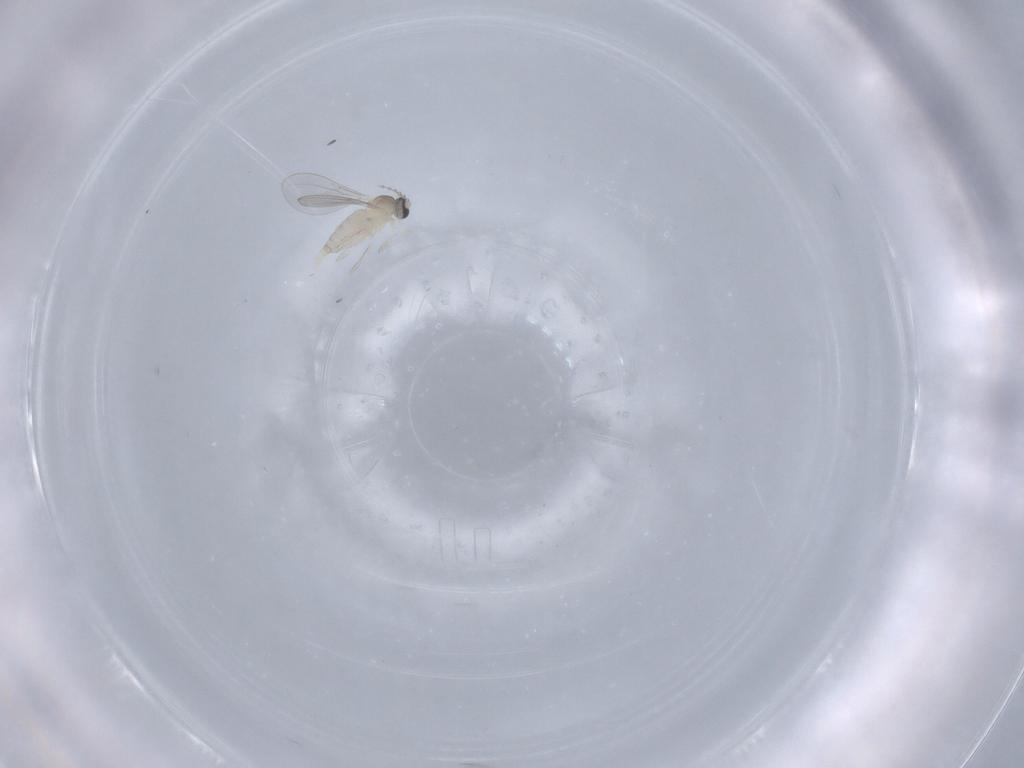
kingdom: Animalia
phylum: Arthropoda
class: Insecta
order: Diptera
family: Cecidomyiidae
